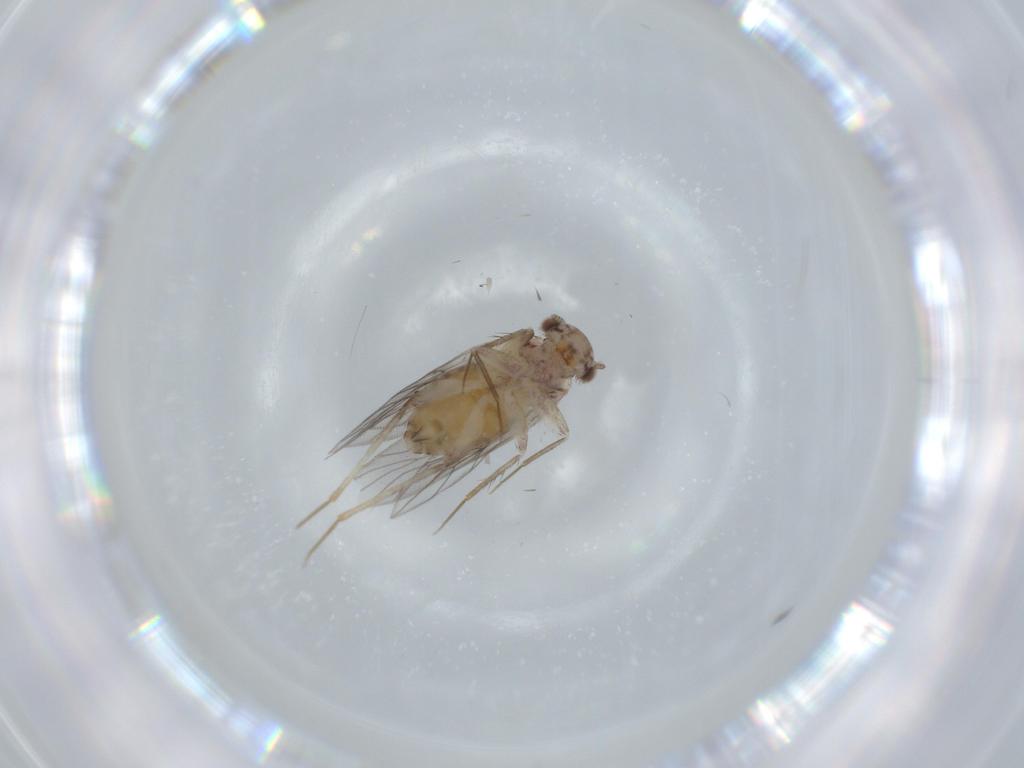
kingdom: Animalia
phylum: Arthropoda
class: Insecta
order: Psocodea
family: Lepidopsocidae
